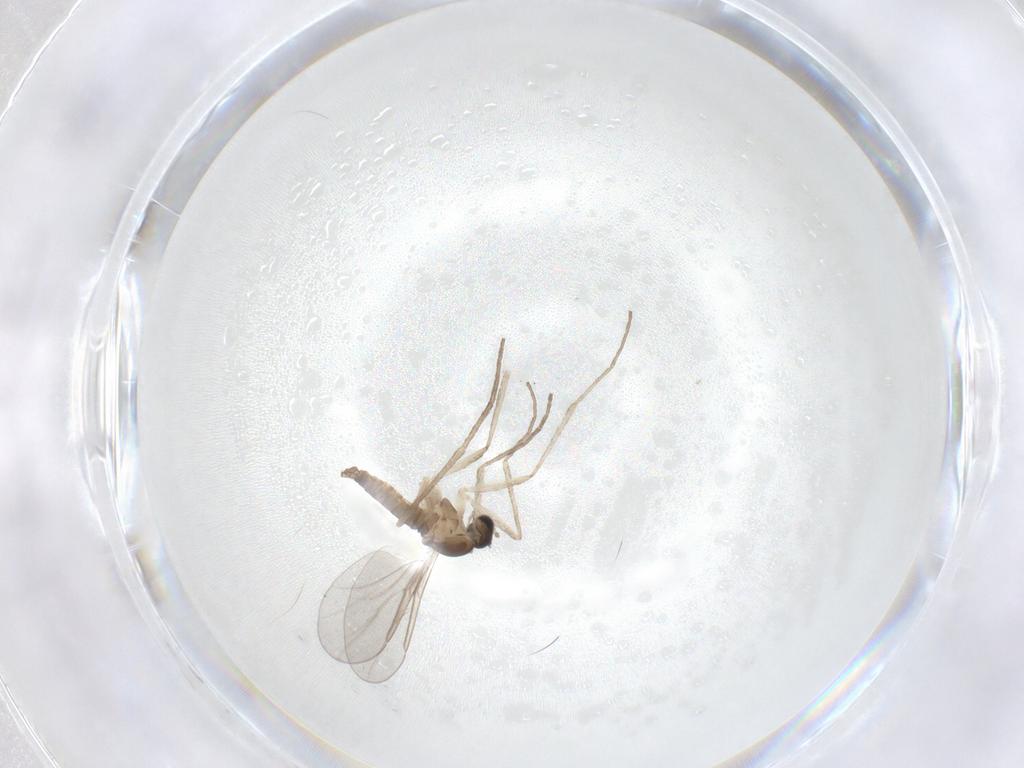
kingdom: Animalia
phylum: Arthropoda
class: Insecta
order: Diptera
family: Cecidomyiidae
